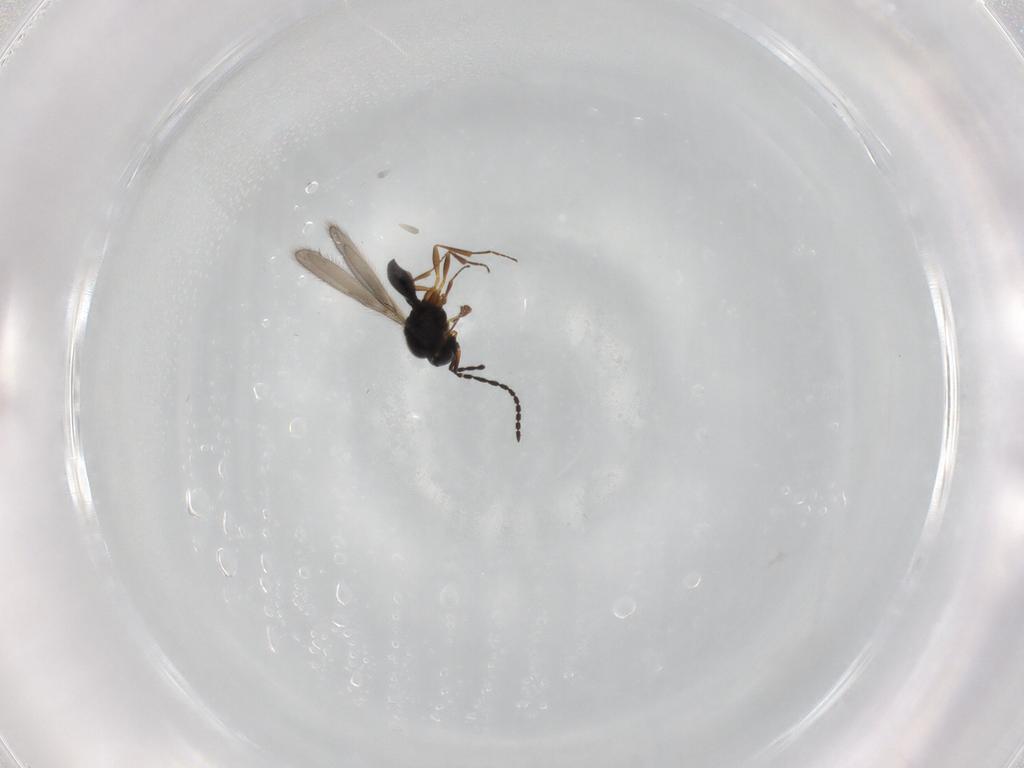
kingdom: Animalia
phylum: Arthropoda
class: Insecta
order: Hymenoptera
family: Scelionidae
